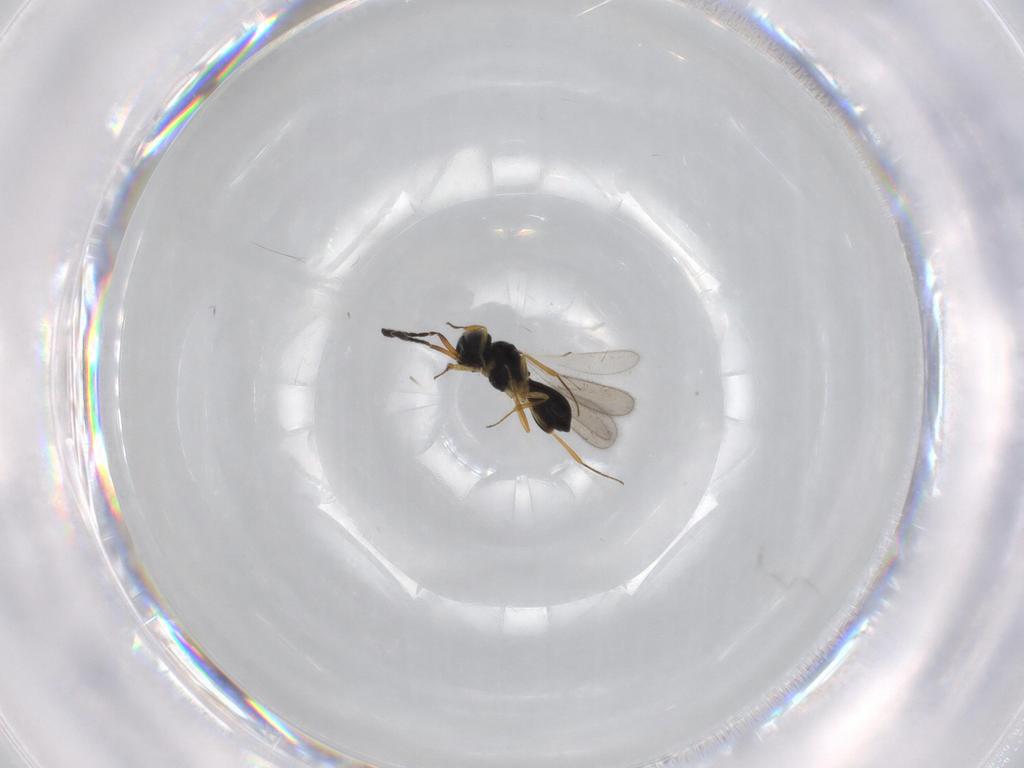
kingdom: Animalia
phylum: Arthropoda
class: Insecta
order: Hymenoptera
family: Scelionidae
